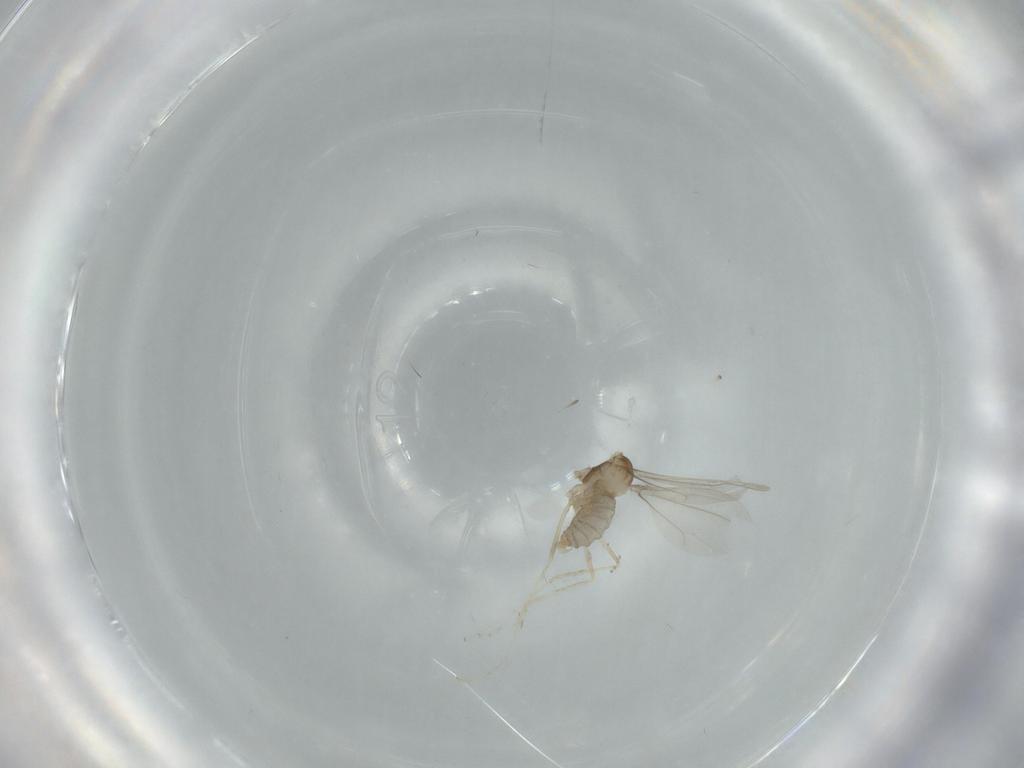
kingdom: Animalia
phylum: Arthropoda
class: Insecta
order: Diptera
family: Cecidomyiidae
